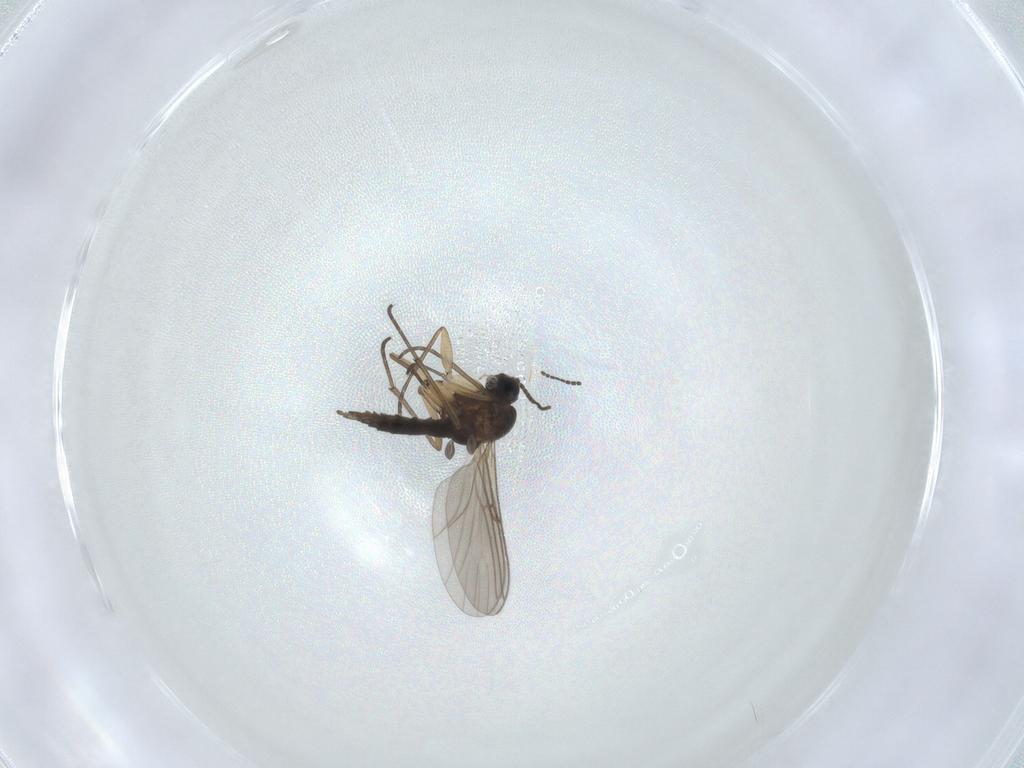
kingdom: Animalia
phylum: Arthropoda
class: Insecta
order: Diptera
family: Sciaridae
